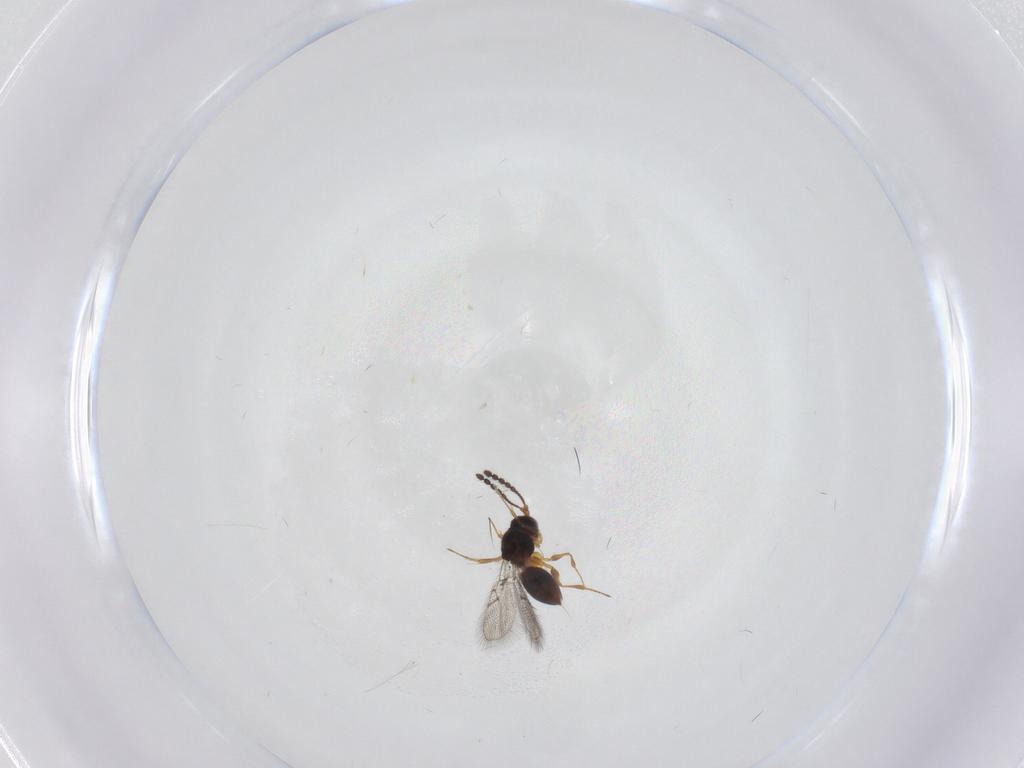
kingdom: Animalia
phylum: Arthropoda
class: Insecta
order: Hymenoptera
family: Figitidae
